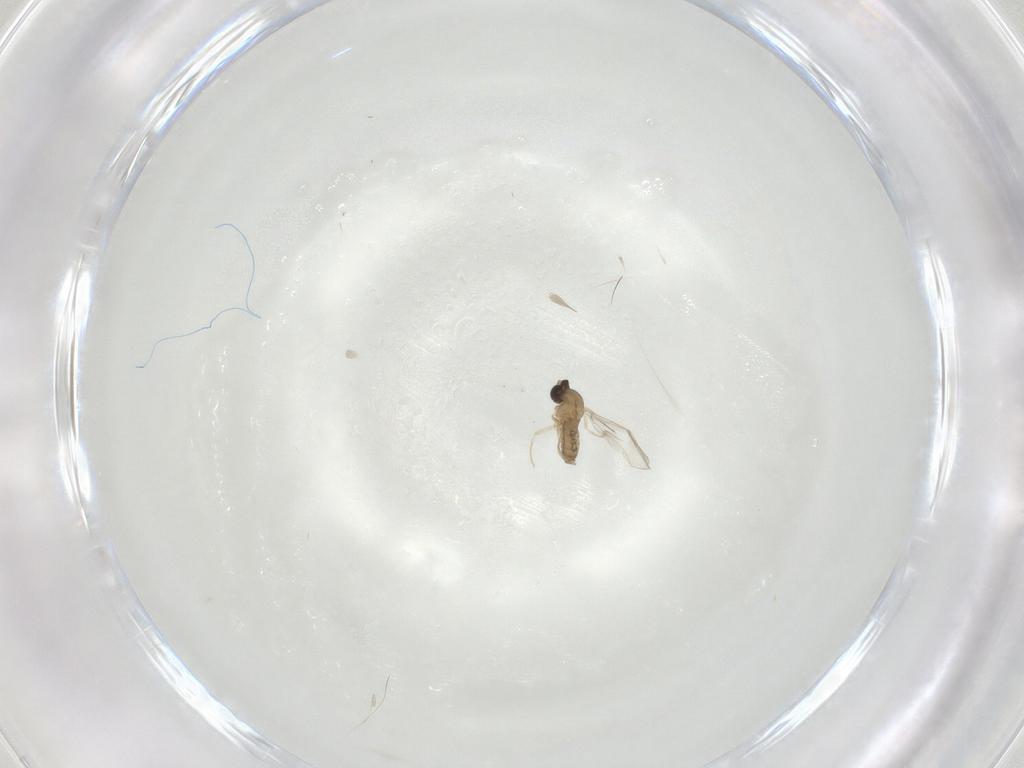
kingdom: Animalia
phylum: Arthropoda
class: Insecta
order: Diptera
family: Cecidomyiidae
